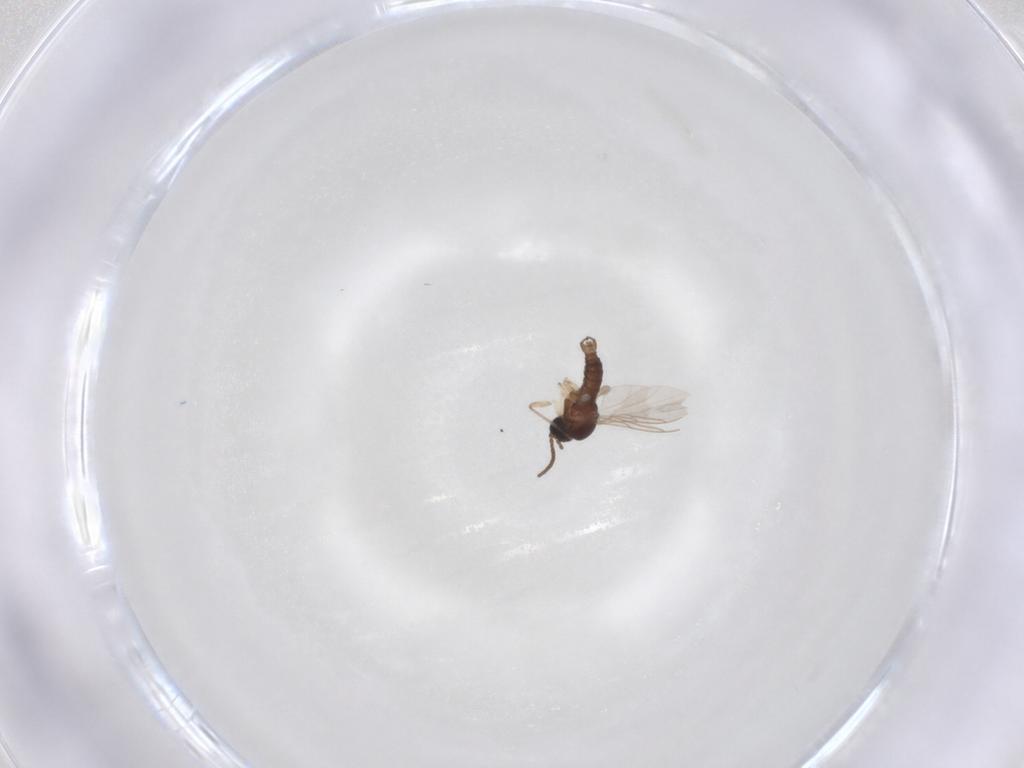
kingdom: Animalia
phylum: Arthropoda
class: Insecta
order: Diptera
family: Sciaridae
